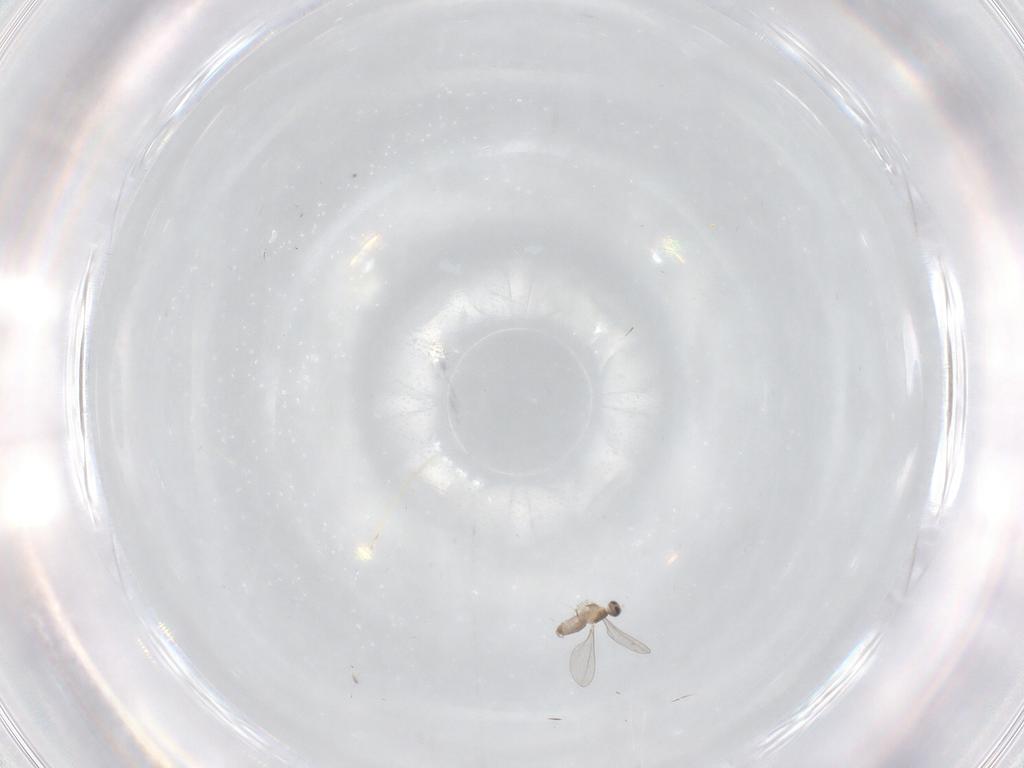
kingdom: Animalia
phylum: Arthropoda
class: Insecta
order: Diptera
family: Cecidomyiidae
